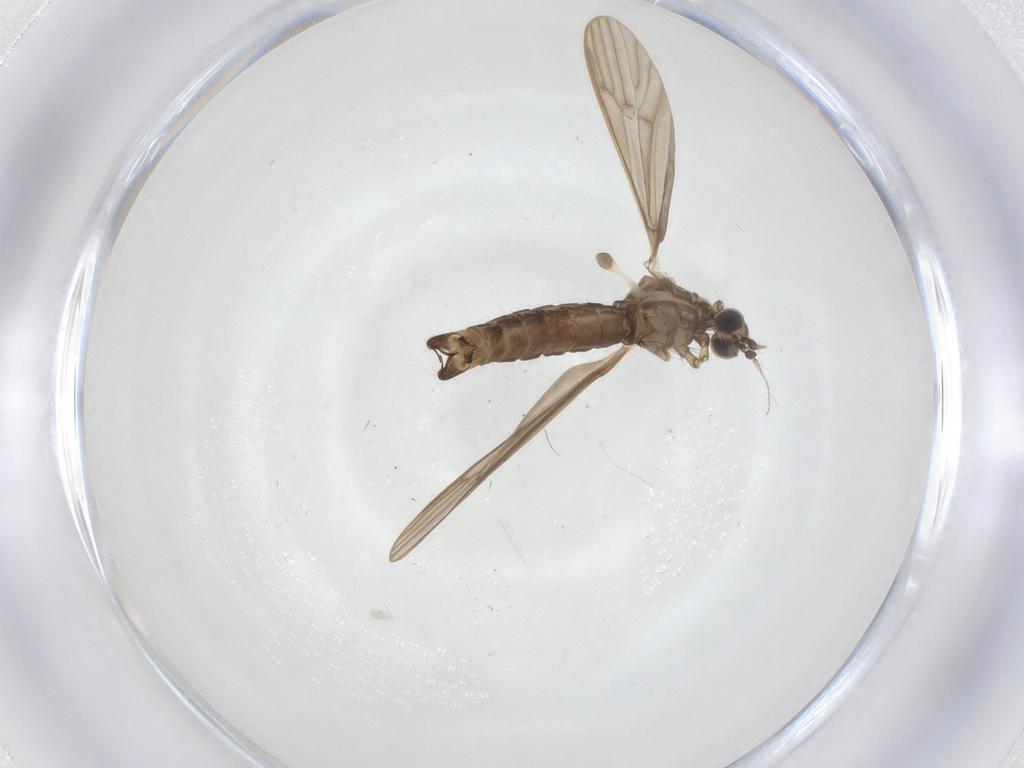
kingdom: Animalia
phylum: Arthropoda
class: Insecta
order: Diptera
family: Limoniidae
